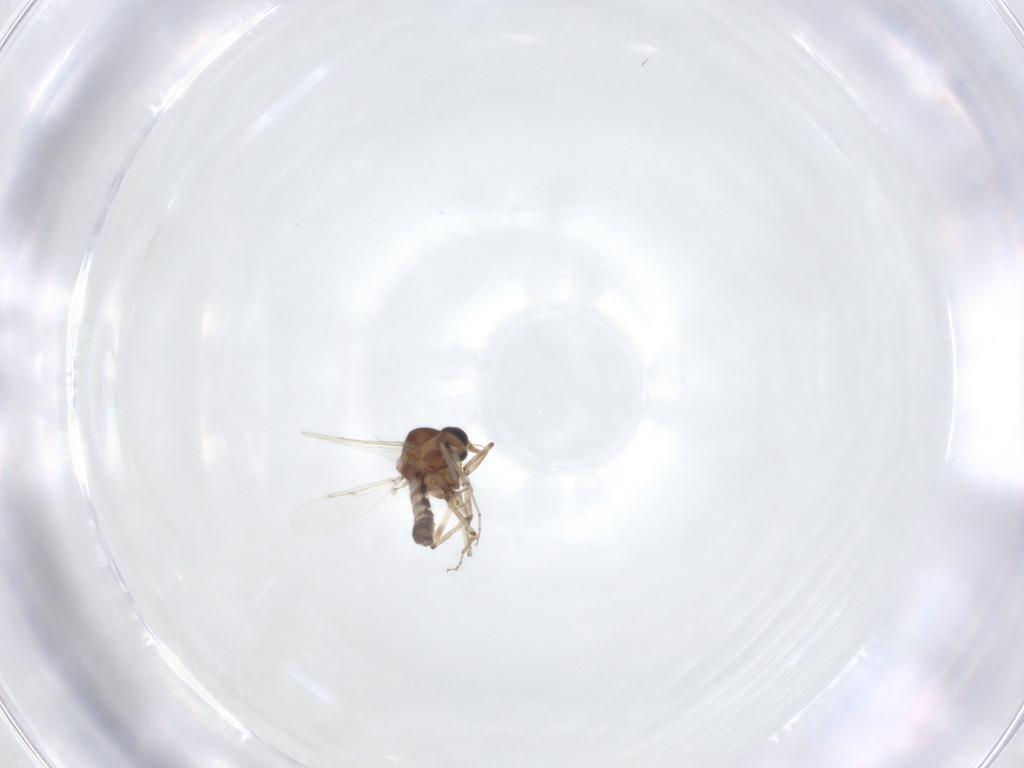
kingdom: Animalia
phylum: Arthropoda
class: Insecta
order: Diptera
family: Ceratopogonidae
